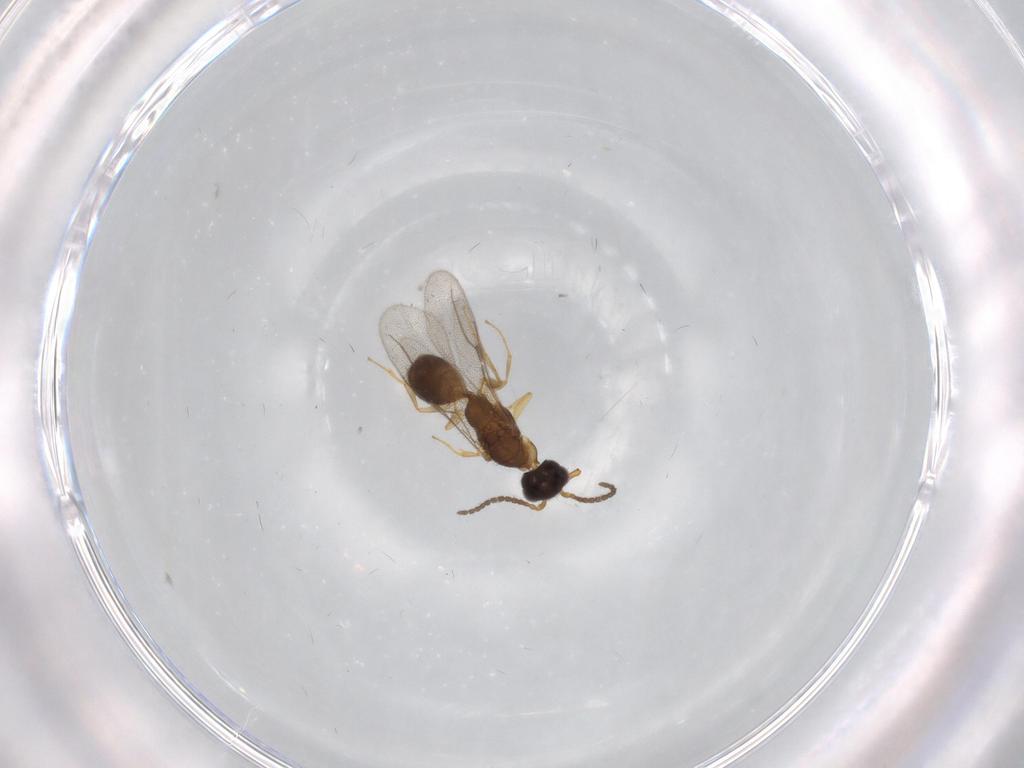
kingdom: Animalia
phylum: Arthropoda
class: Insecta
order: Hymenoptera
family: Bethylidae
